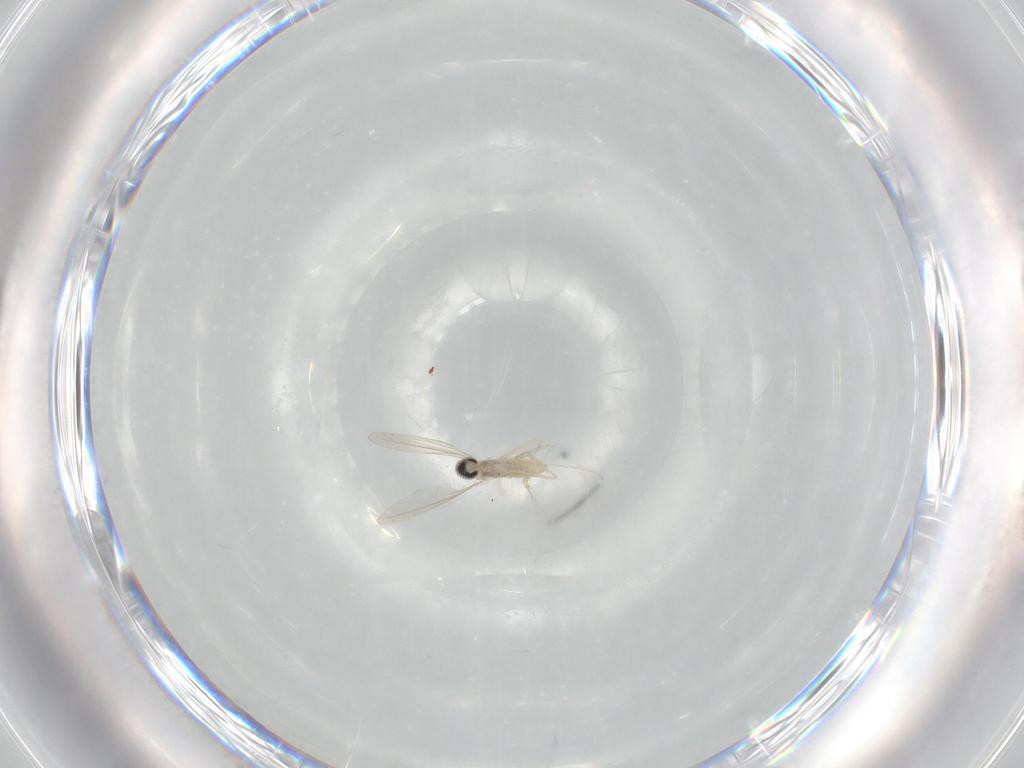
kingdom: Animalia
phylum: Arthropoda
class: Insecta
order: Diptera
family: Cecidomyiidae
